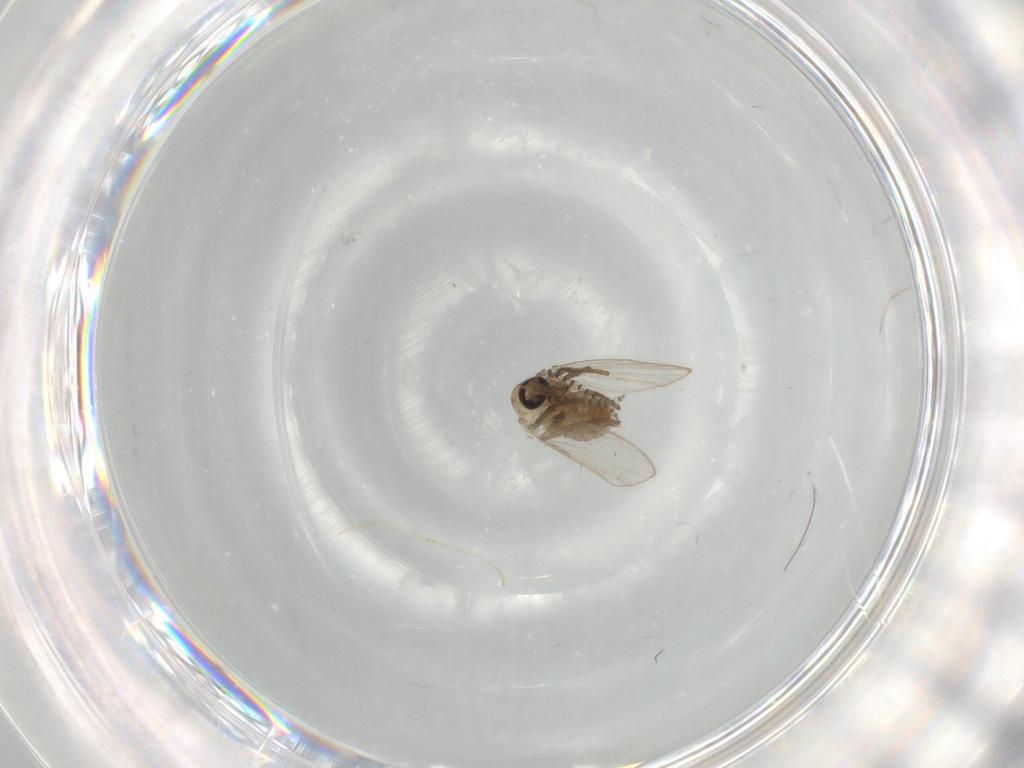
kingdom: Animalia
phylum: Arthropoda
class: Insecta
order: Diptera
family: Psychodidae
